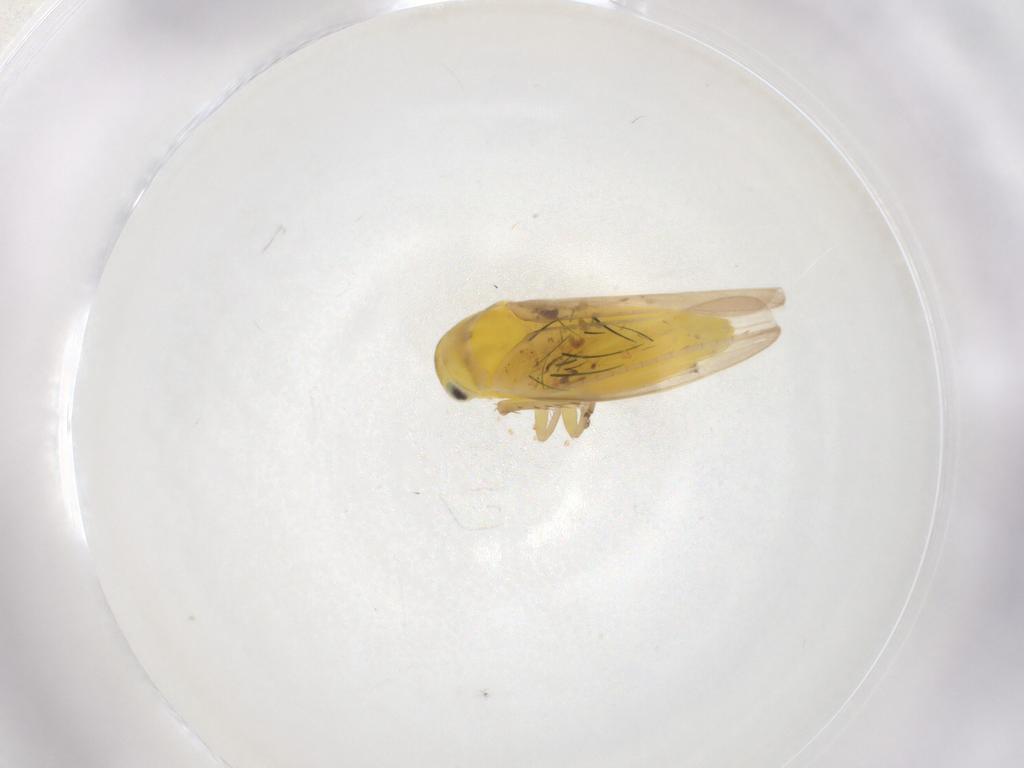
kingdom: Animalia
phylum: Arthropoda
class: Insecta
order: Hemiptera
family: Cicadellidae
